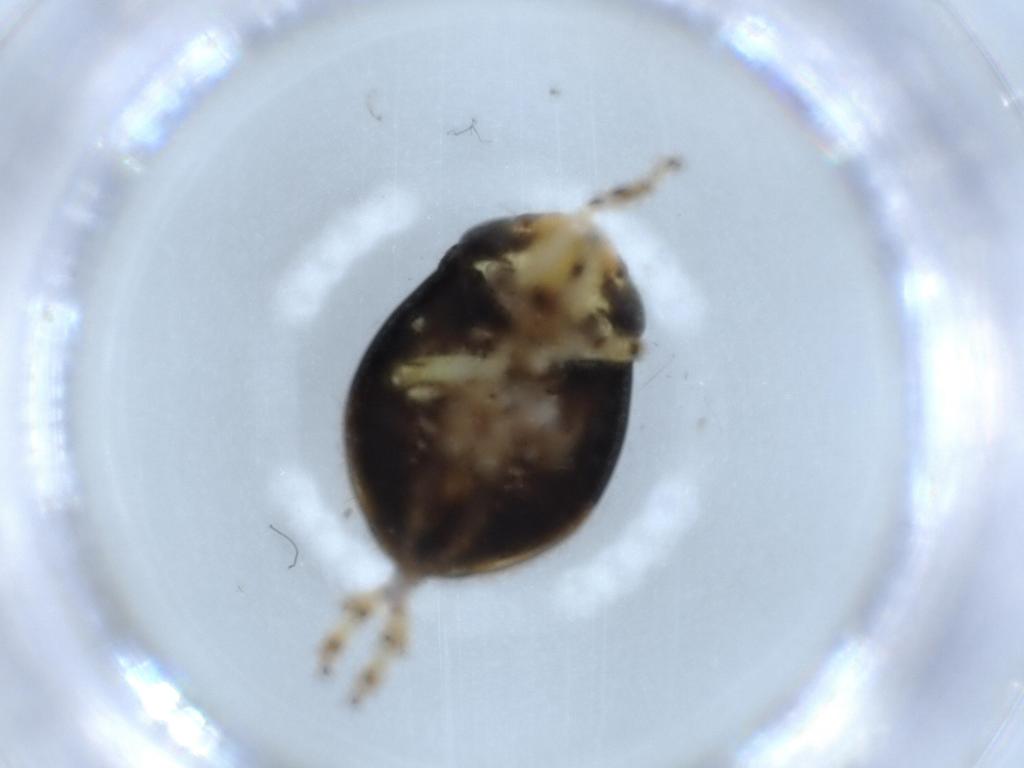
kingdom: Animalia
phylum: Arthropoda
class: Insecta
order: Hemiptera
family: Clastopteridae
